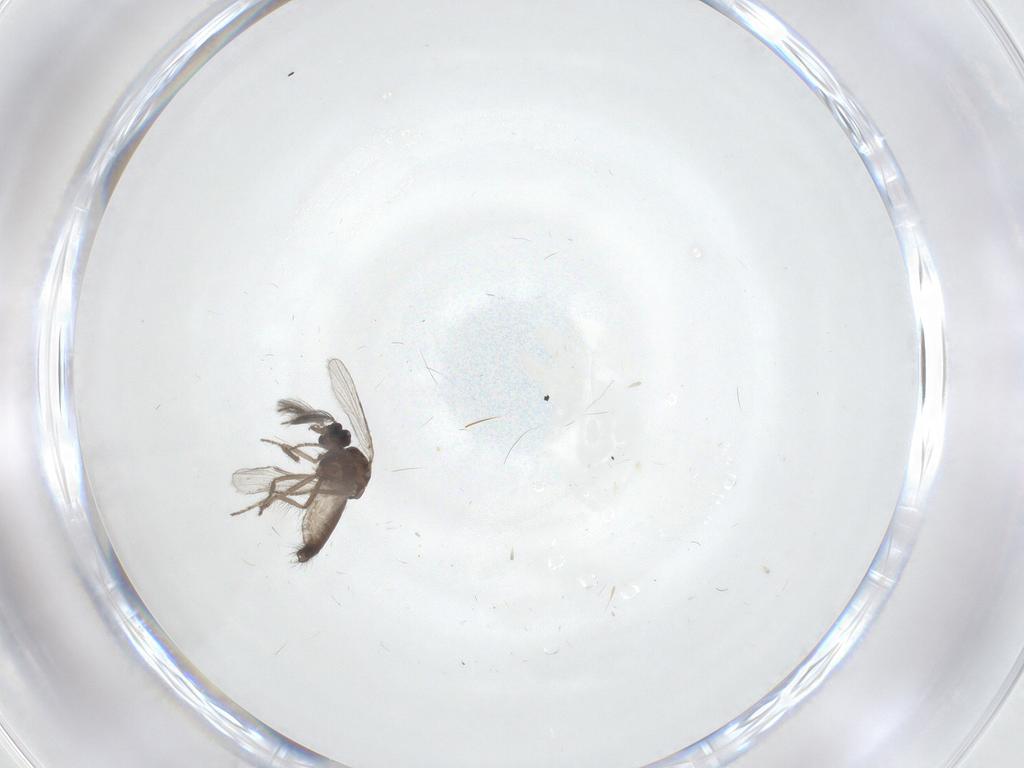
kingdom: Animalia
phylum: Arthropoda
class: Insecta
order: Diptera
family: Ceratopogonidae
